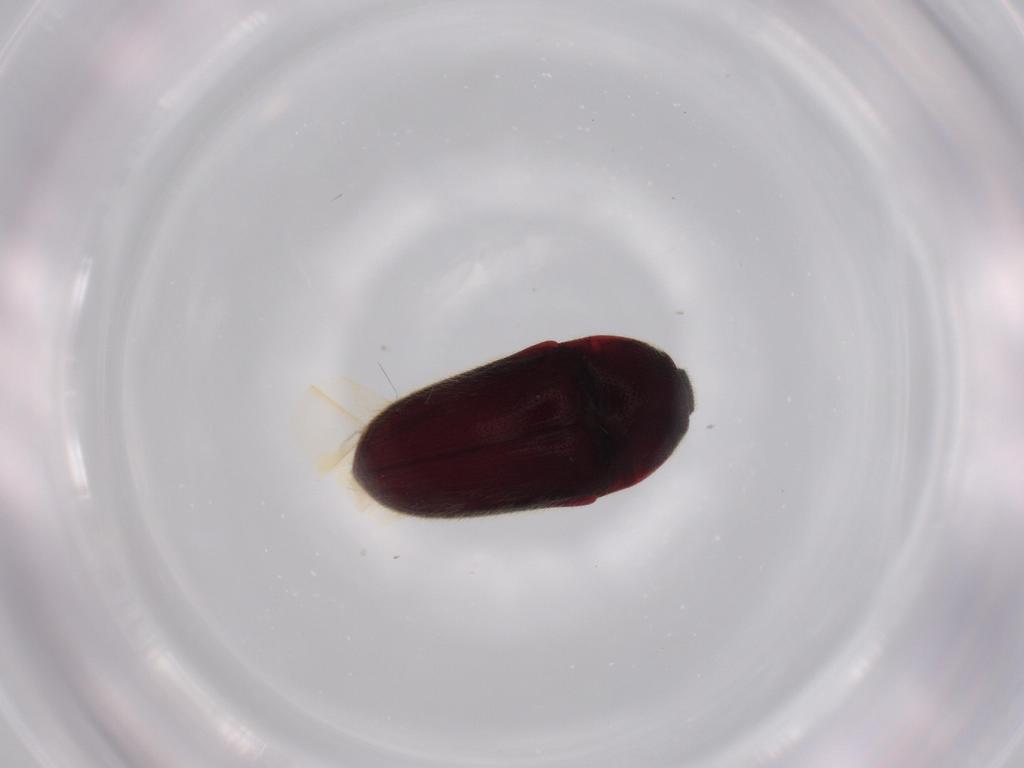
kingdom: Animalia
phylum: Arthropoda
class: Insecta
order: Coleoptera
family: Throscidae
